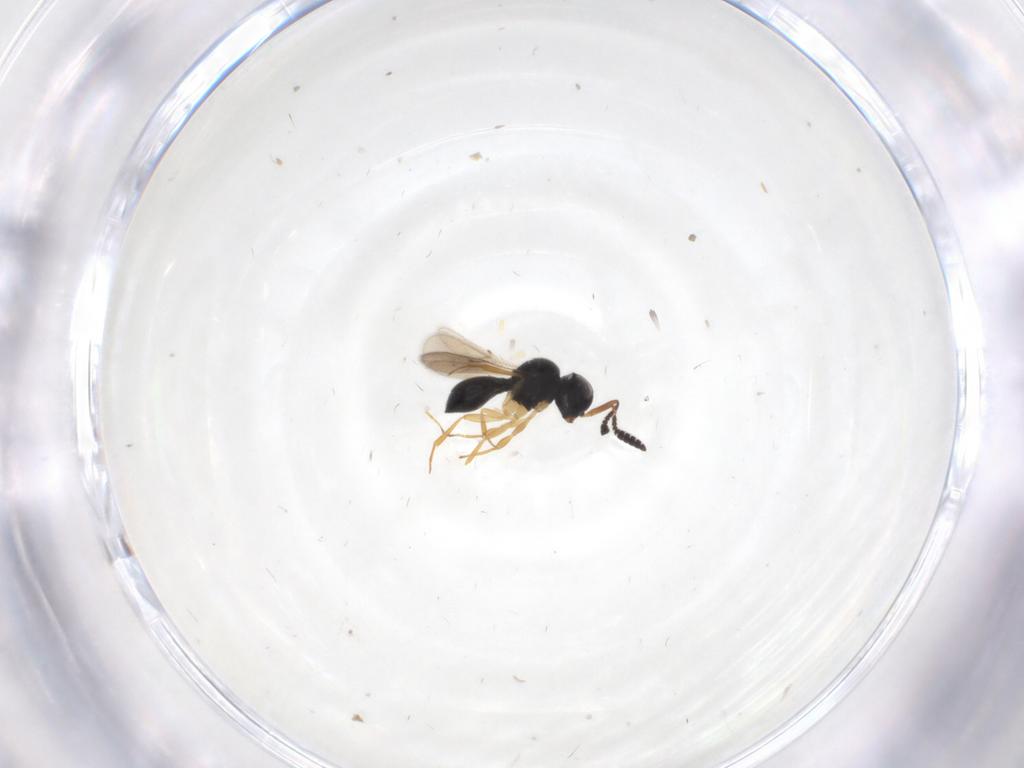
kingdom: Animalia
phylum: Arthropoda
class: Insecta
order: Hymenoptera
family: Scelionidae
